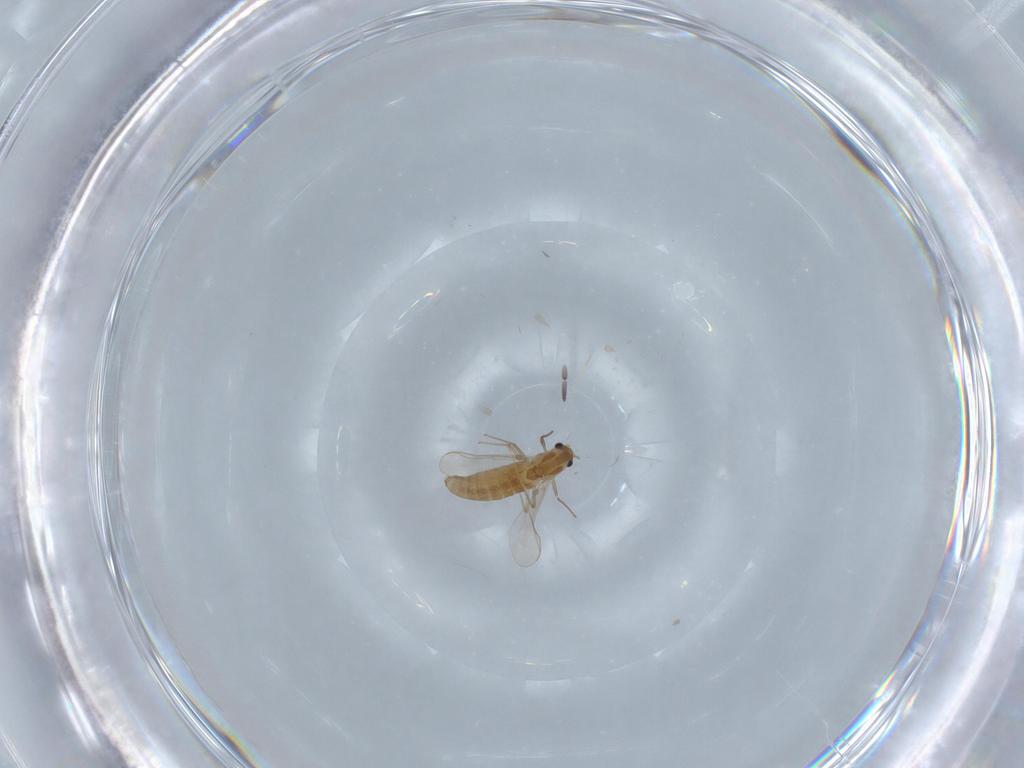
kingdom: Animalia
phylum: Arthropoda
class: Insecta
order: Diptera
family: Chironomidae
